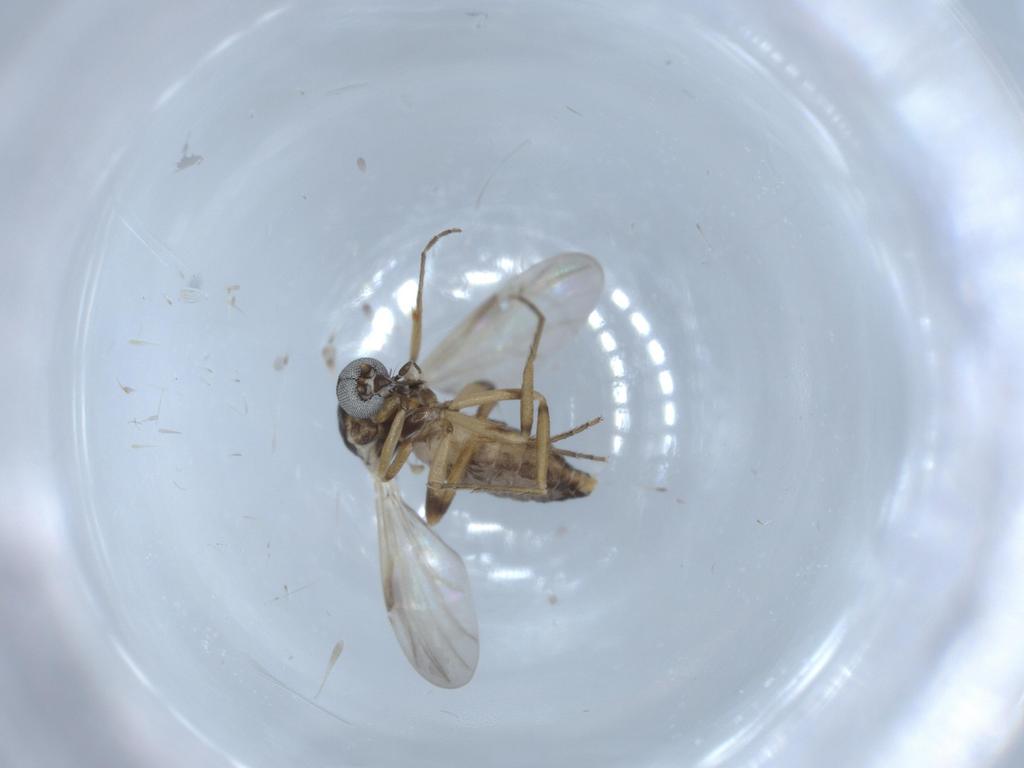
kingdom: Animalia
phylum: Arthropoda
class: Insecta
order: Diptera
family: Ceratopogonidae
